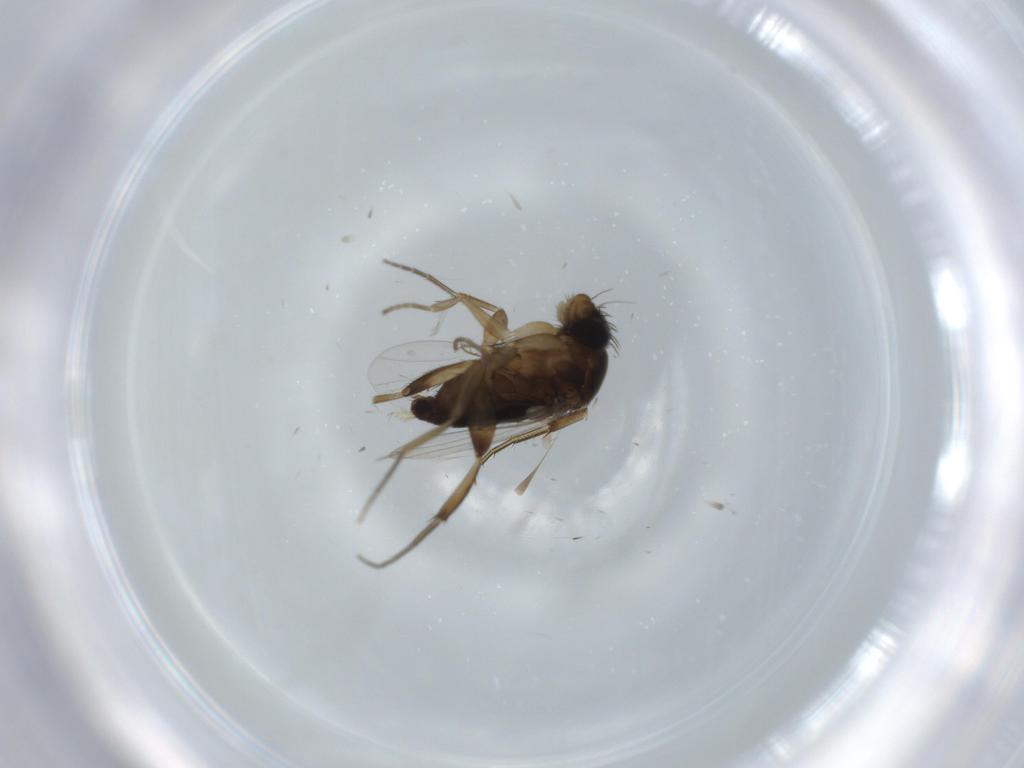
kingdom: Animalia
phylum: Arthropoda
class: Insecta
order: Diptera
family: Phoridae
